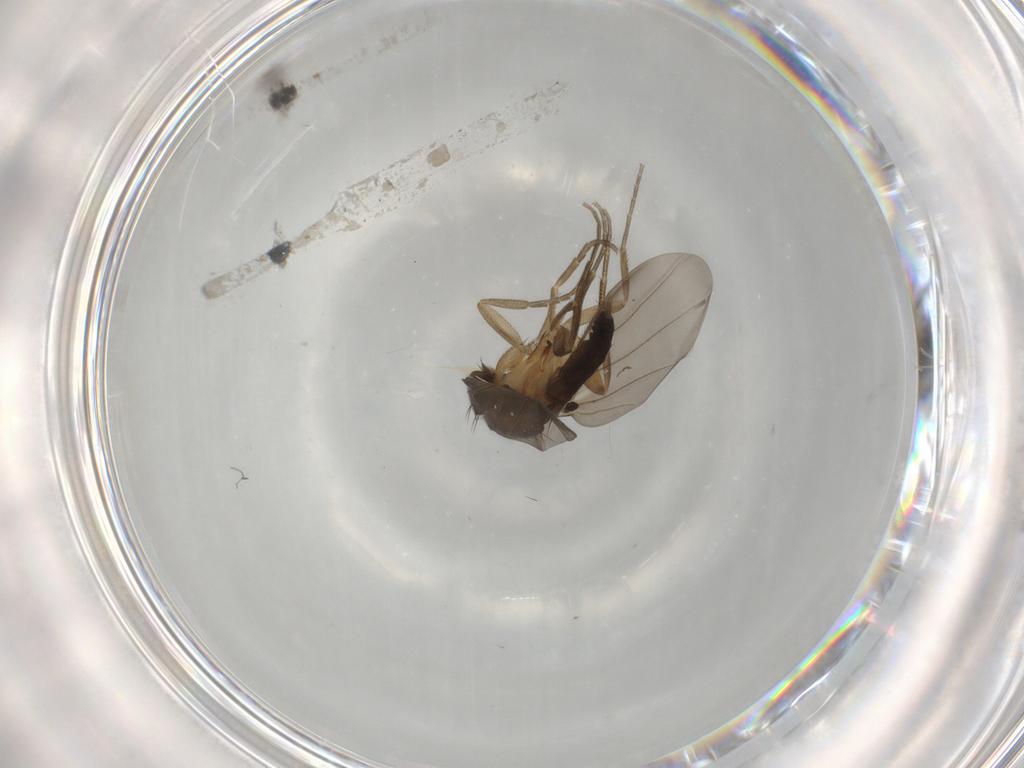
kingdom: Animalia
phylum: Arthropoda
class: Insecta
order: Diptera
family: Phoridae
